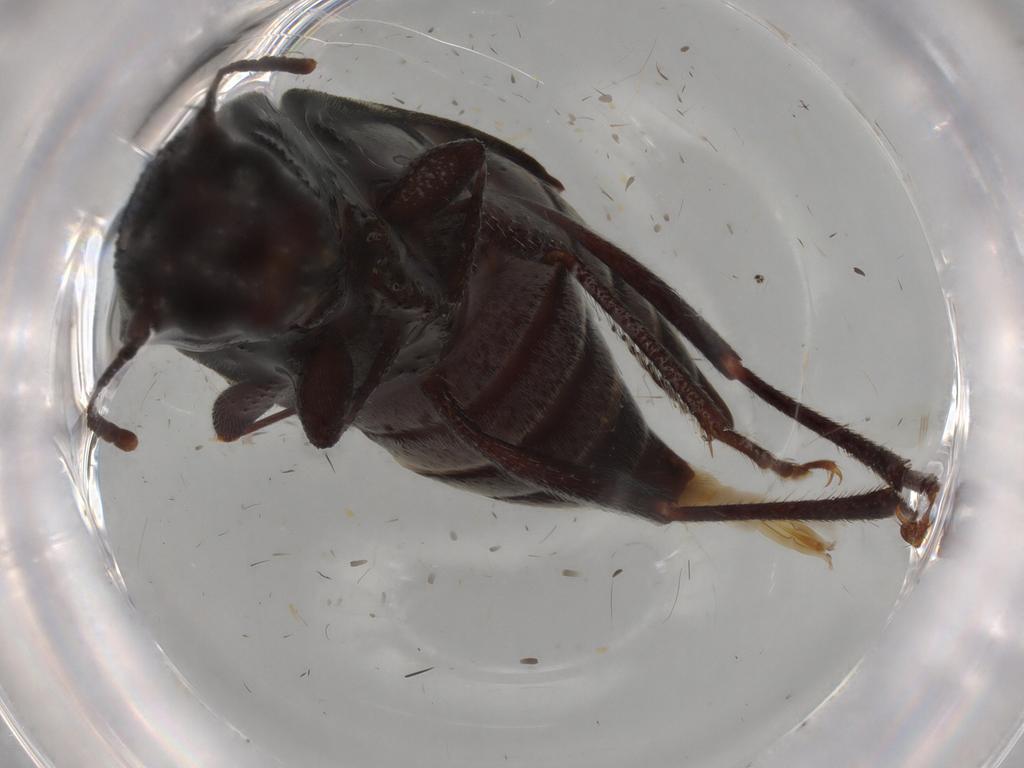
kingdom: Animalia
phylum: Arthropoda
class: Insecta
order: Coleoptera
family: Cerambycidae
